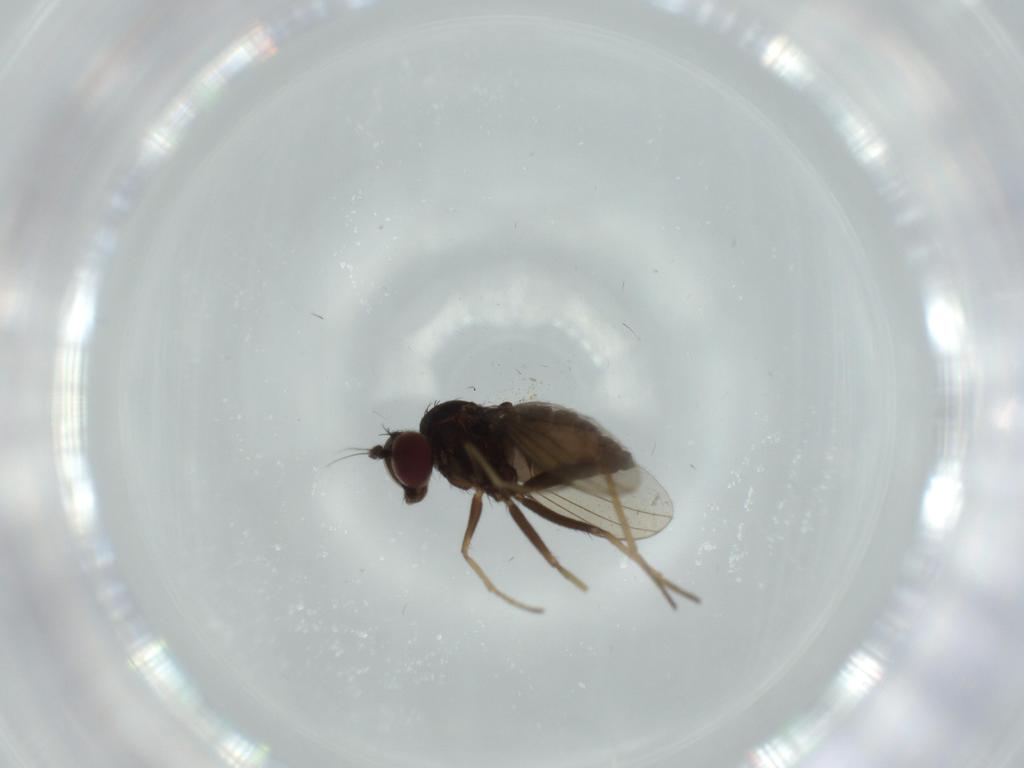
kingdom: Animalia
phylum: Arthropoda
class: Insecta
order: Diptera
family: Dolichopodidae
